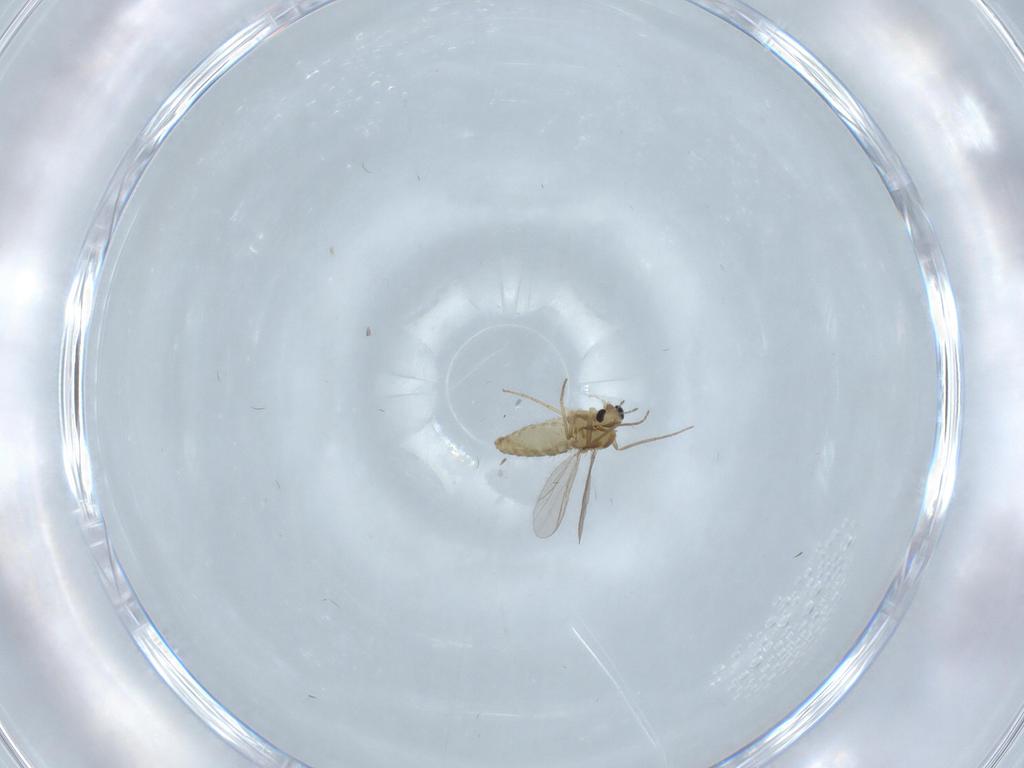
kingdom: Animalia
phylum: Arthropoda
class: Insecta
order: Diptera
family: Chironomidae
